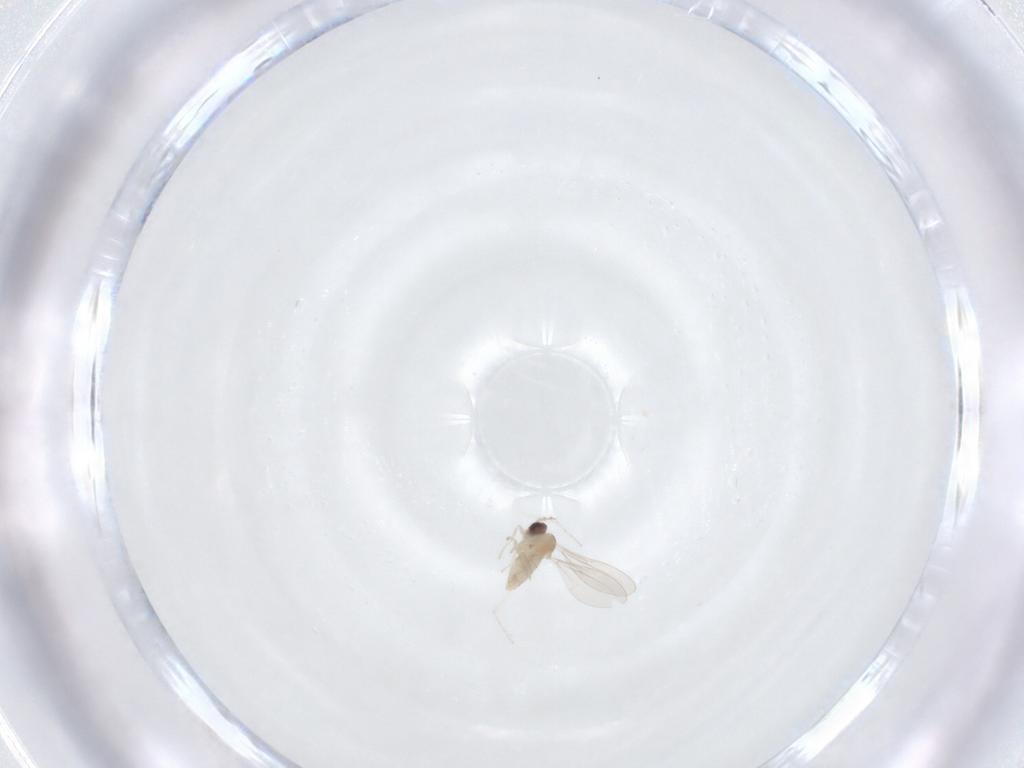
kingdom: Animalia
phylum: Arthropoda
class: Insecta
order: Diptera
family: Cecidomyiidae
